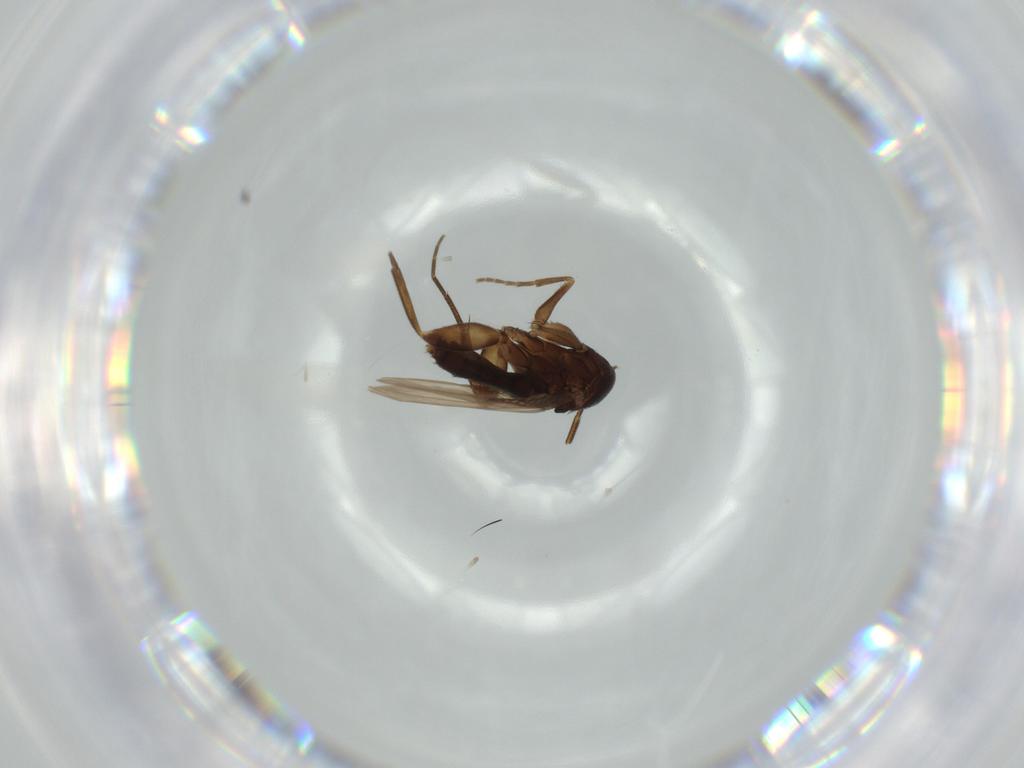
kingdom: Animalia
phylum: Arthropoda
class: Insecta
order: Diptera
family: Phoridae
